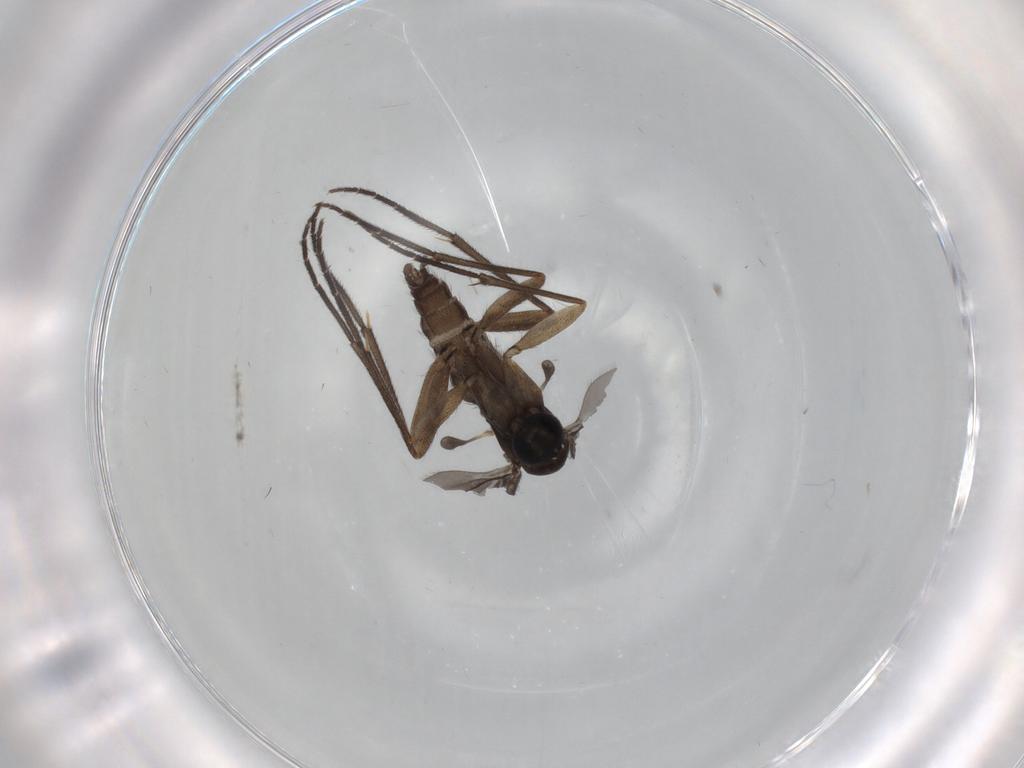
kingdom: Animalia
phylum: Arthropoda
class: Insecta
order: Diptera
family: Sciaridae
